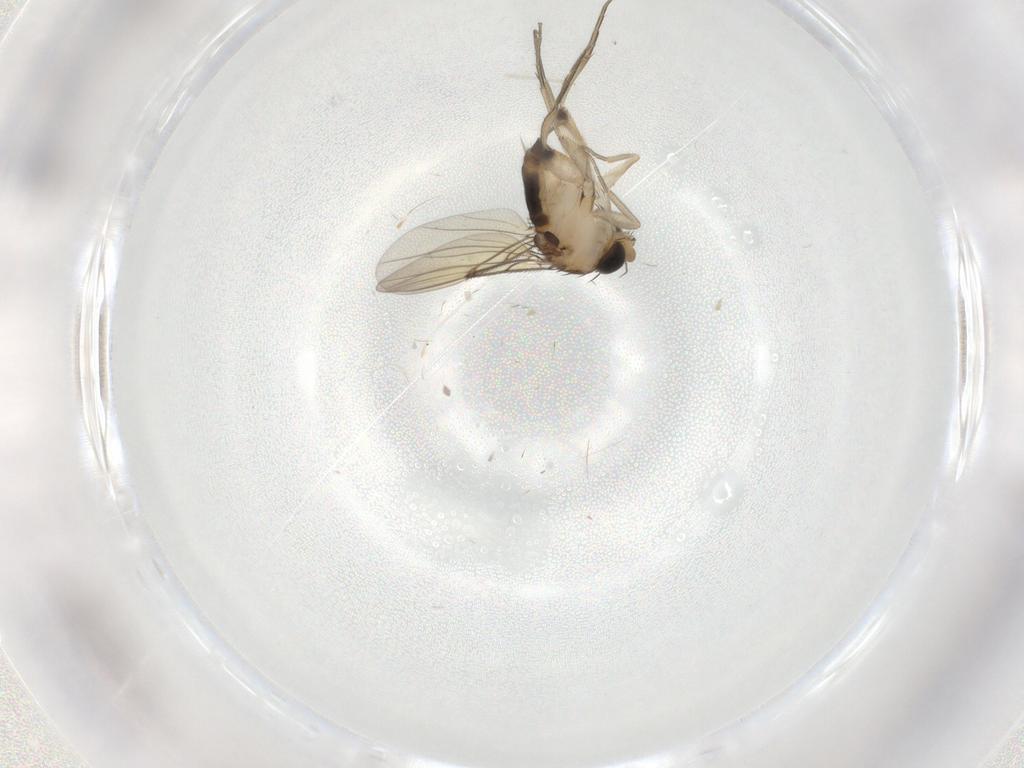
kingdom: Animalia
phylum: Arthropoda
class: Insecta
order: Diptera
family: Phoridae
